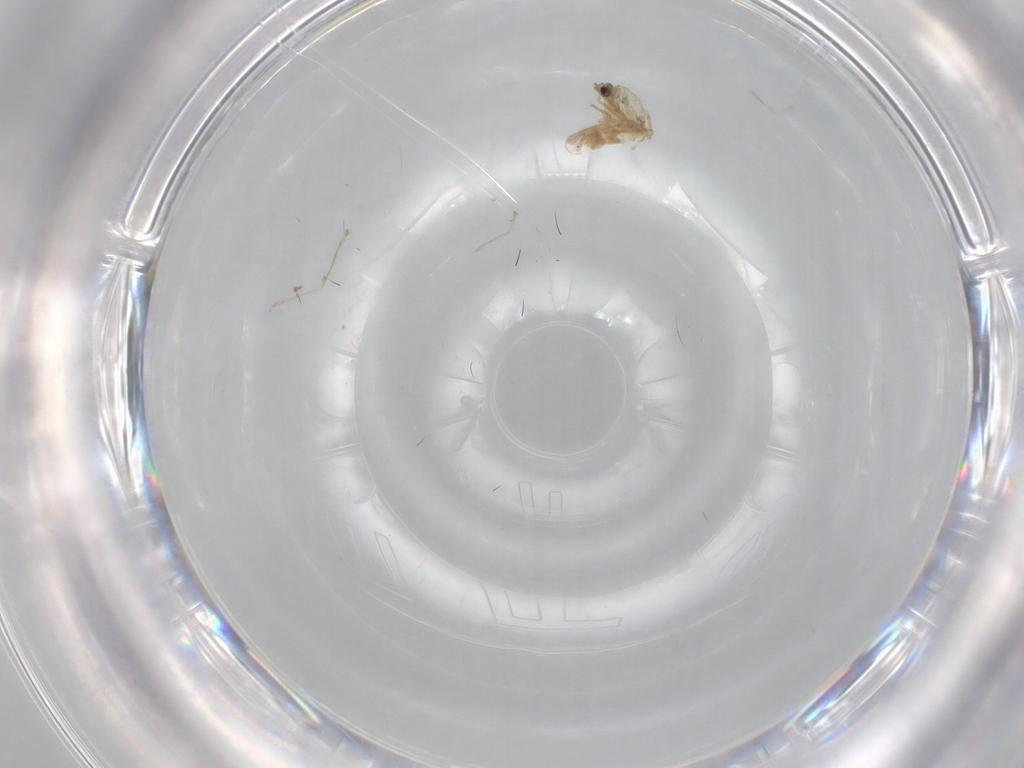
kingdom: Animalia
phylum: Arthropoda
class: Insecta
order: Diptera
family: Chironomidae
